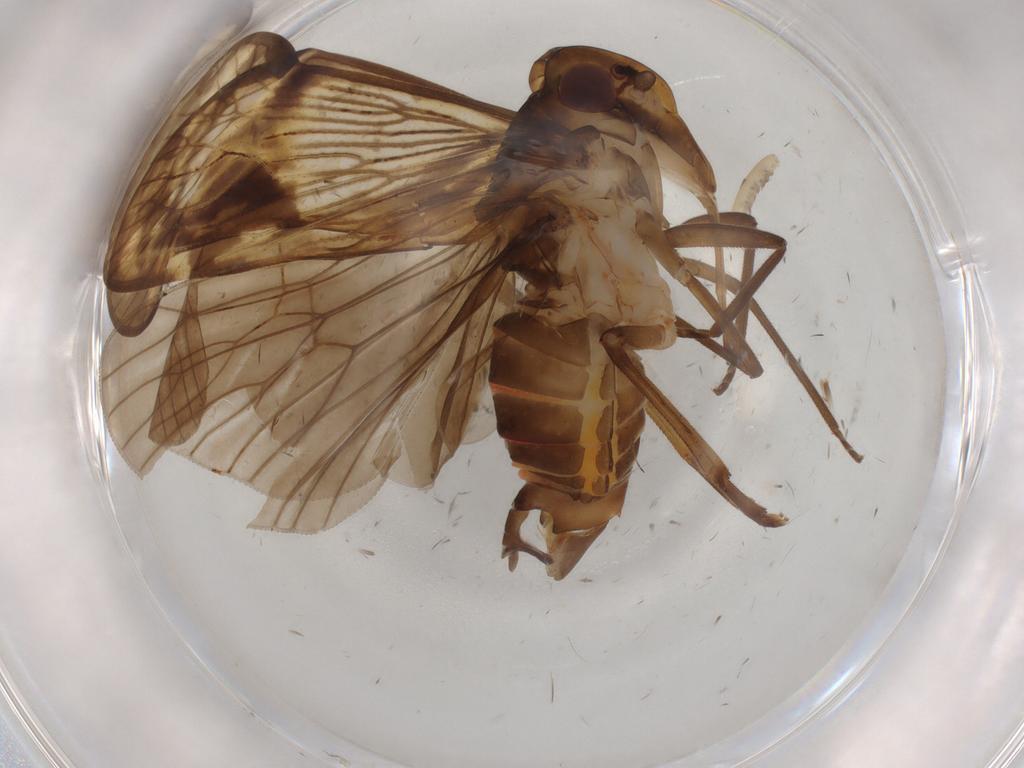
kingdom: Animalia
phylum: Arthropoda
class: Insecta
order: Hemiptera
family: Cixiidae
